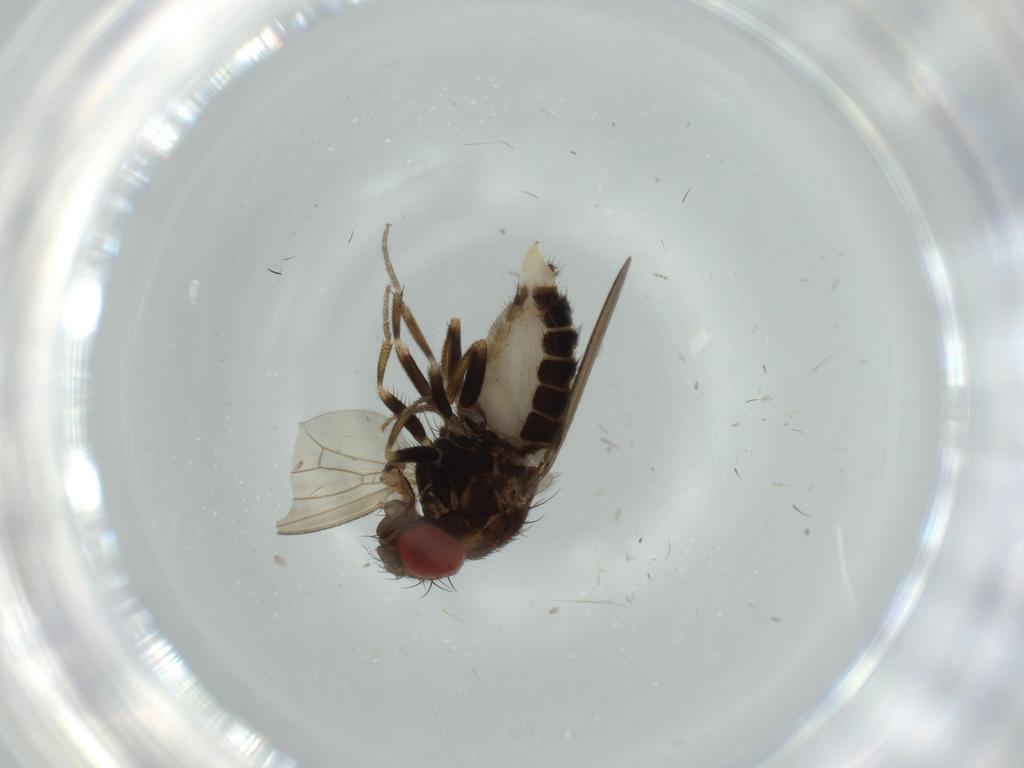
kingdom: Animalia
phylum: Arthropoda
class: Insecta
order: Diptera
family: Drosophilidae
